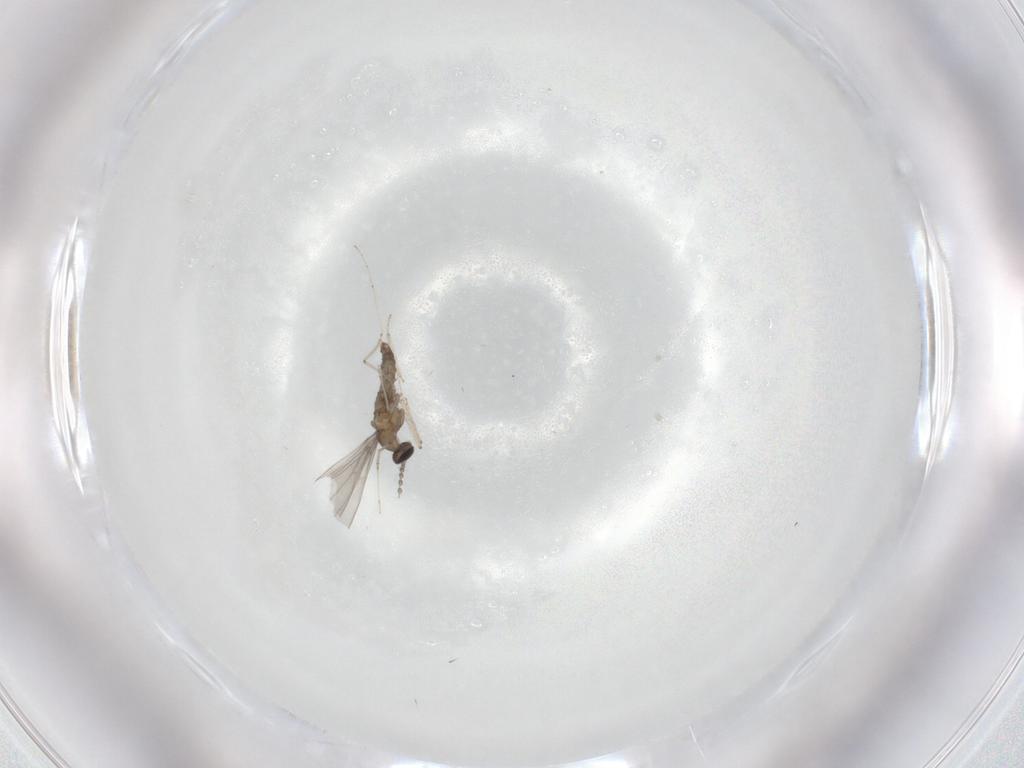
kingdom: Animalia
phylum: Arthropoda
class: Insecta
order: Diptera
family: Cecidomyiidae
